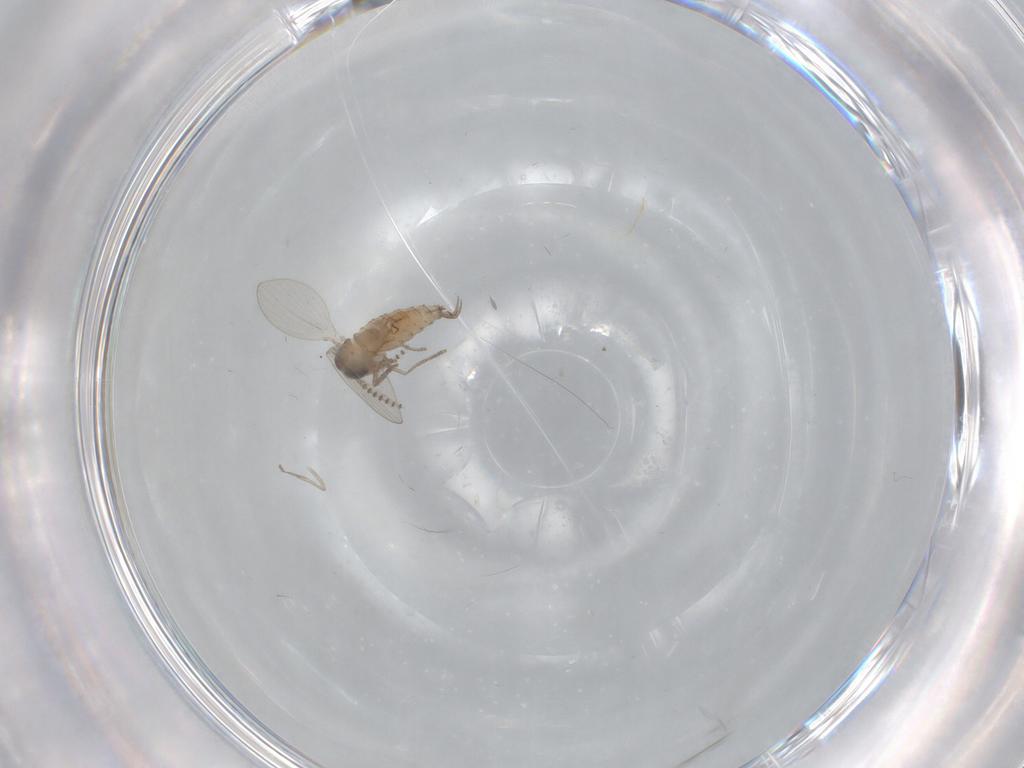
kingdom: Animalia
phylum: Arthropoda
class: Insecta
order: Diptera
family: Psychodidae
